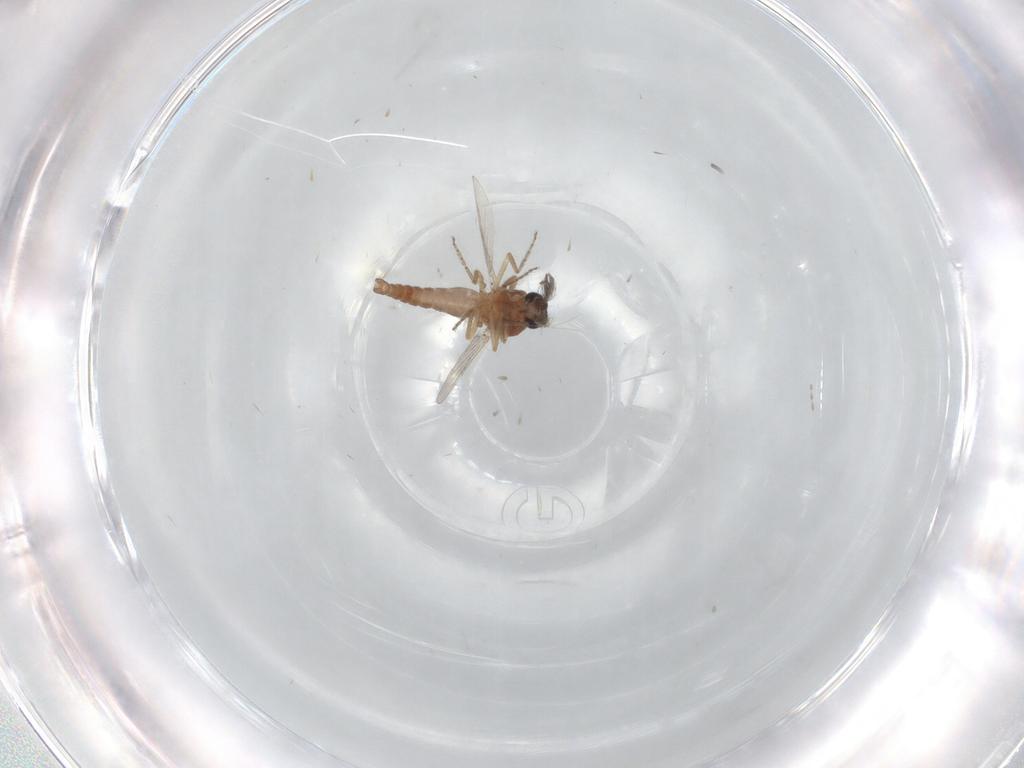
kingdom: Animalia
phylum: Arthropoda
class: Insecta
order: Diptera
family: Ceratopogonidae
